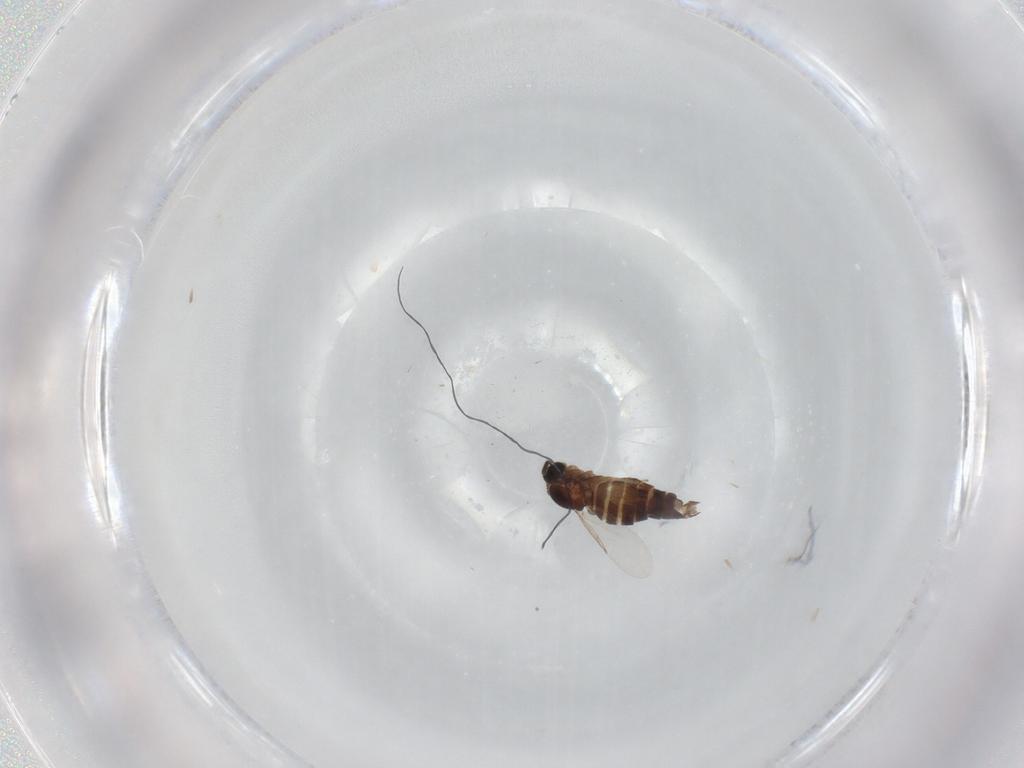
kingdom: Animalia
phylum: Arthropoda
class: Insecta
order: Diptera
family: Scatopsidae
